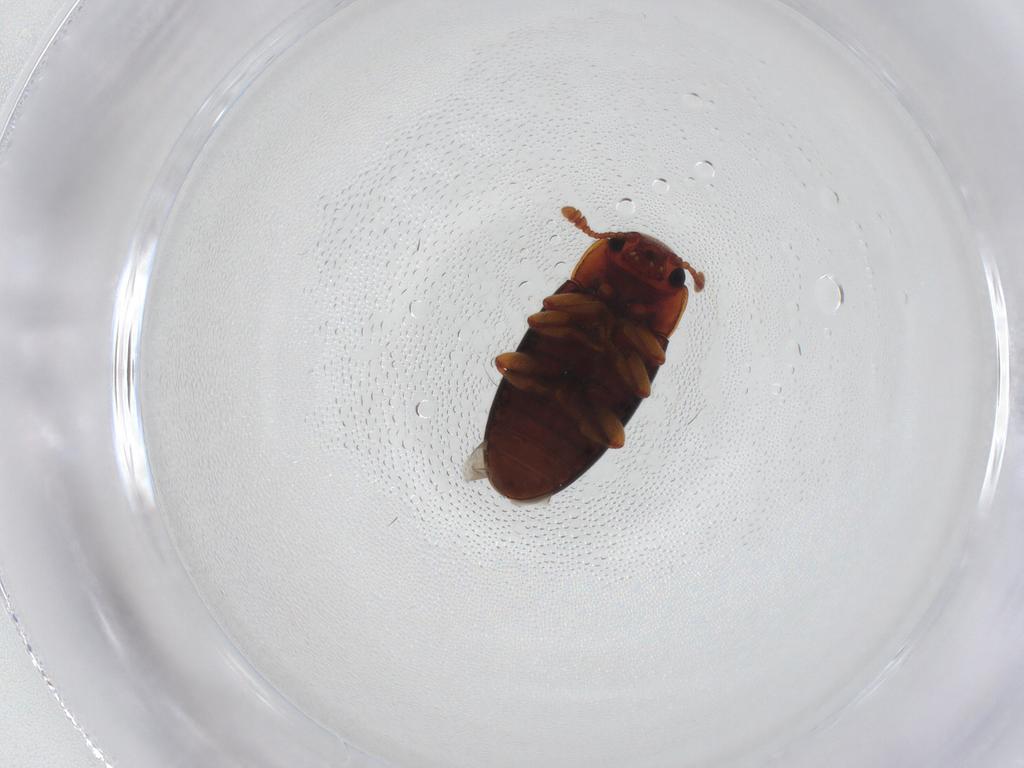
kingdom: Animalia
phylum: Arthropoda
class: Insecta
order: Coleoptera
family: Erotylidae
